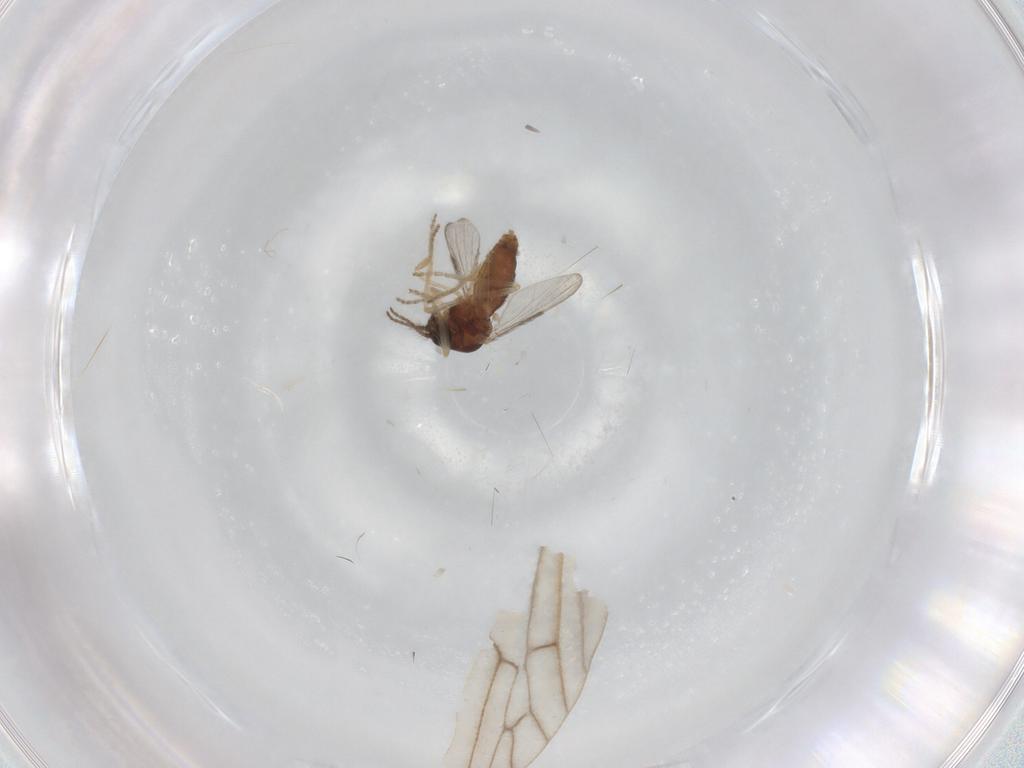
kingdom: Animalia
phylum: Arthropoda
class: Insecta
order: Diptera
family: Ceratopogonidae
